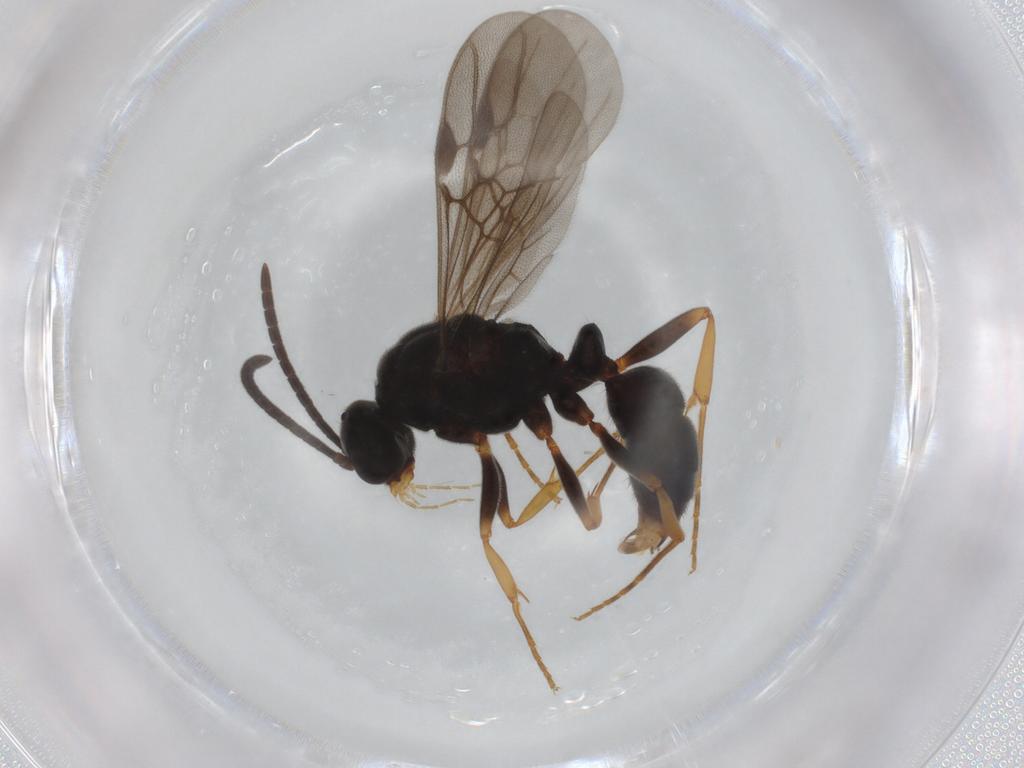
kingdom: Animalia
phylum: Arthropoda
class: Insecta
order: Hymenoptera
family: Formicidae
